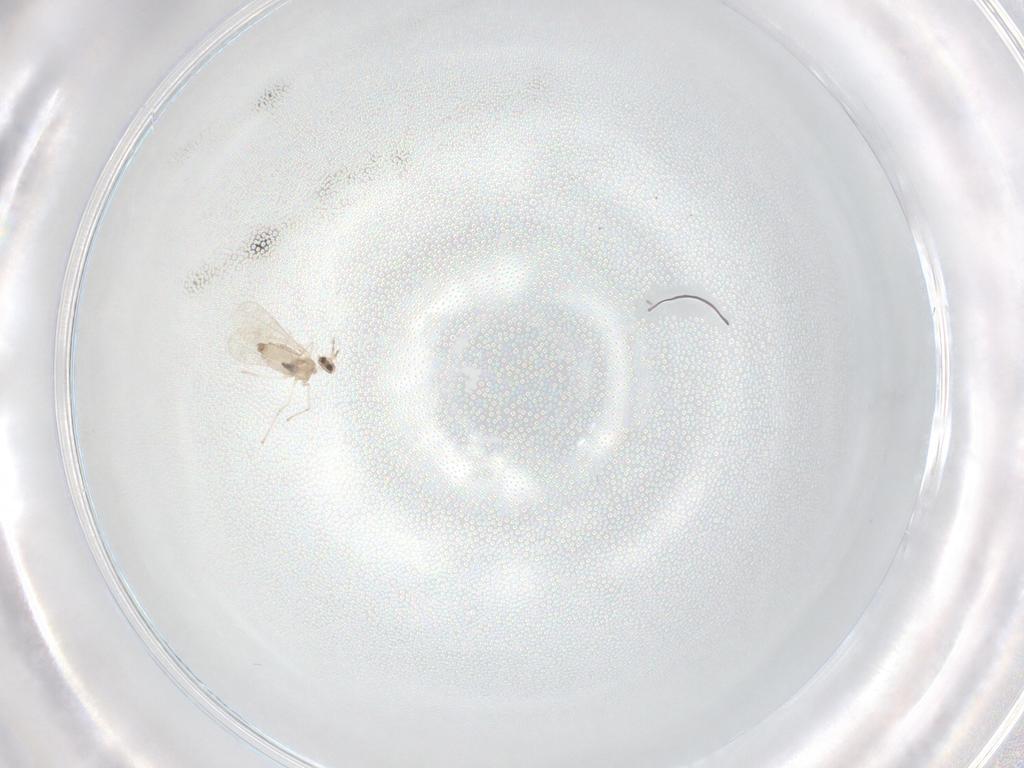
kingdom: Animalia
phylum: Arthropoda
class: Insecta
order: Diptera
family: Cecidomyiidae
